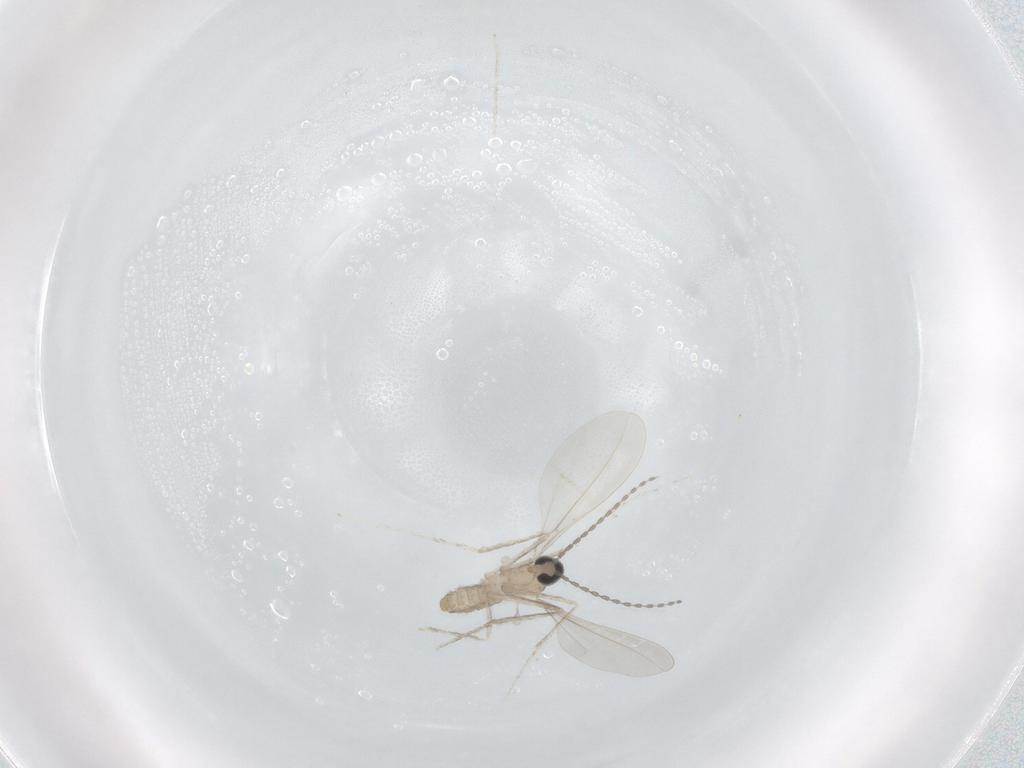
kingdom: Animalia
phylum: Arthropoda
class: Insecta
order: Diptera
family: Cecidomyiidae
